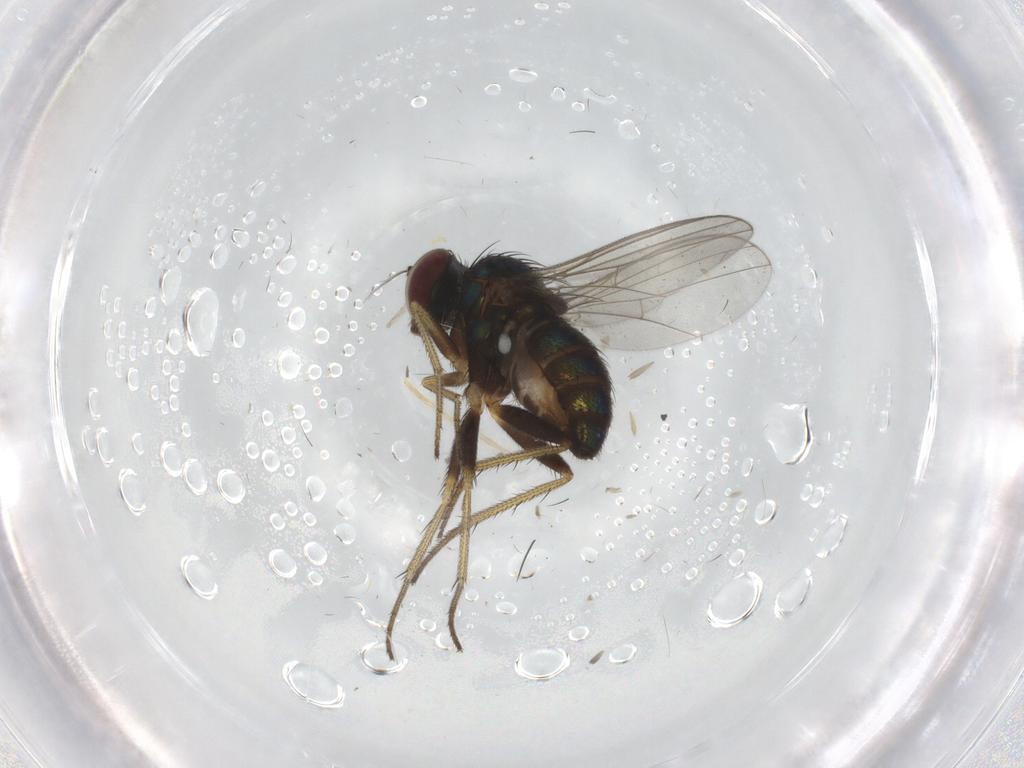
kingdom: Animalia
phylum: Arthropoda
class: Insecta
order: Diptera
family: Dolichopodidae
